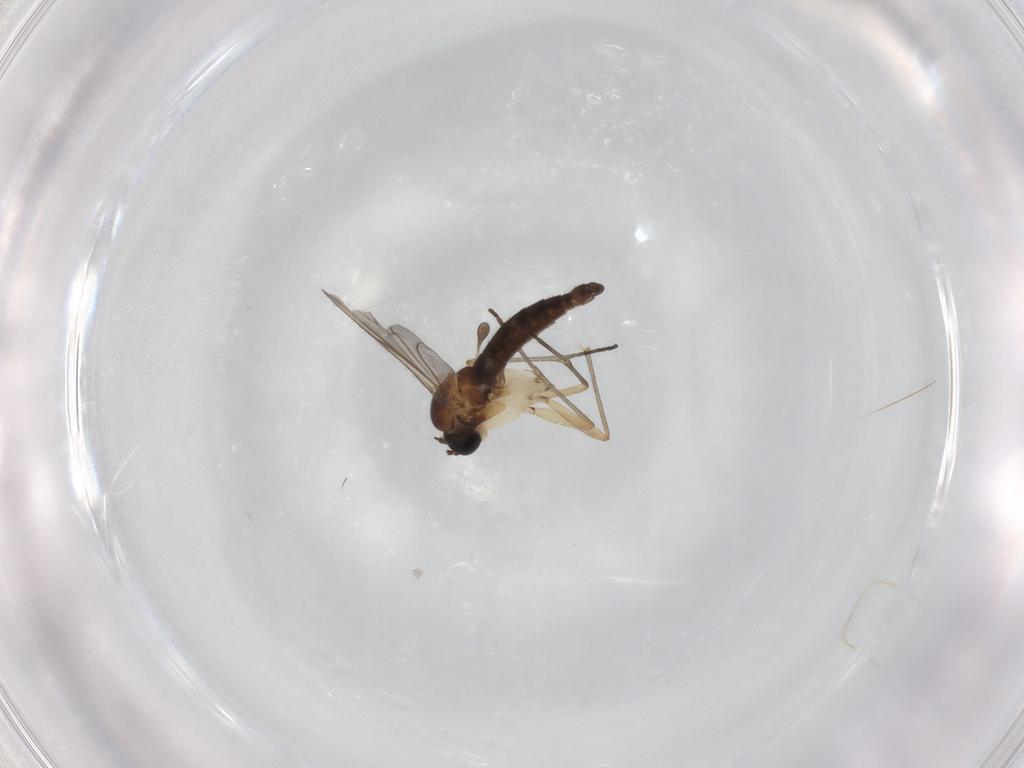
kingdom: Animalia
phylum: Arthropoda
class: Insecta
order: Diptera
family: Sciaridae
